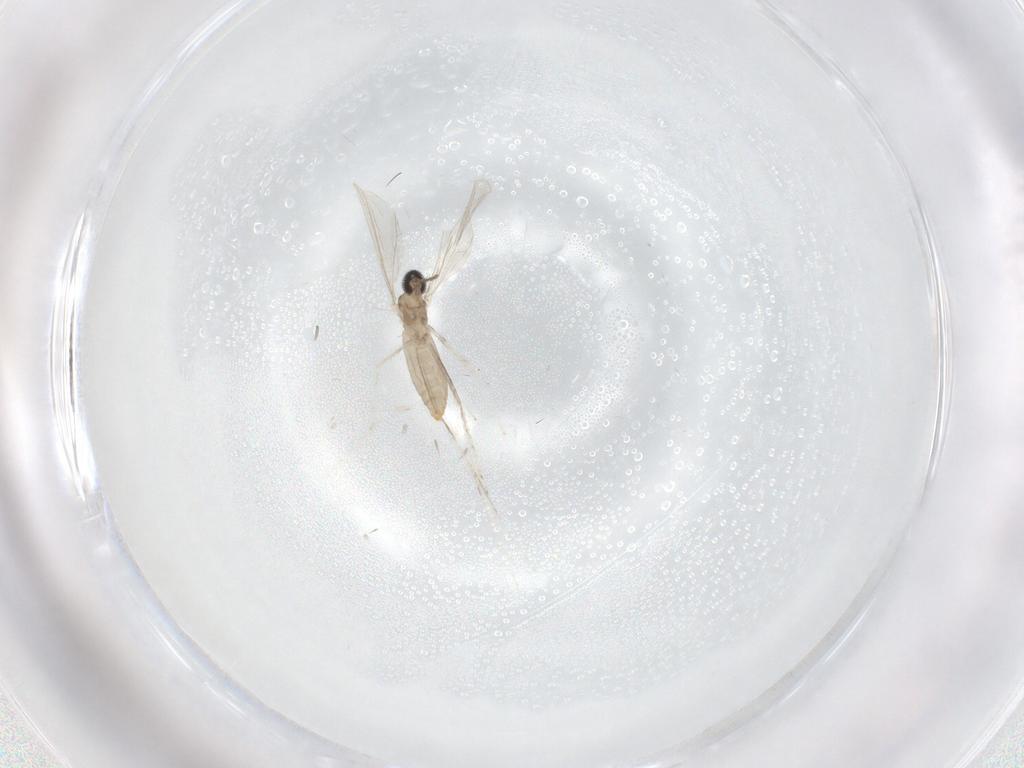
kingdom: Animalia
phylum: Arthropoda
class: Insecta
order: Diptera
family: Cecidomyiidae
